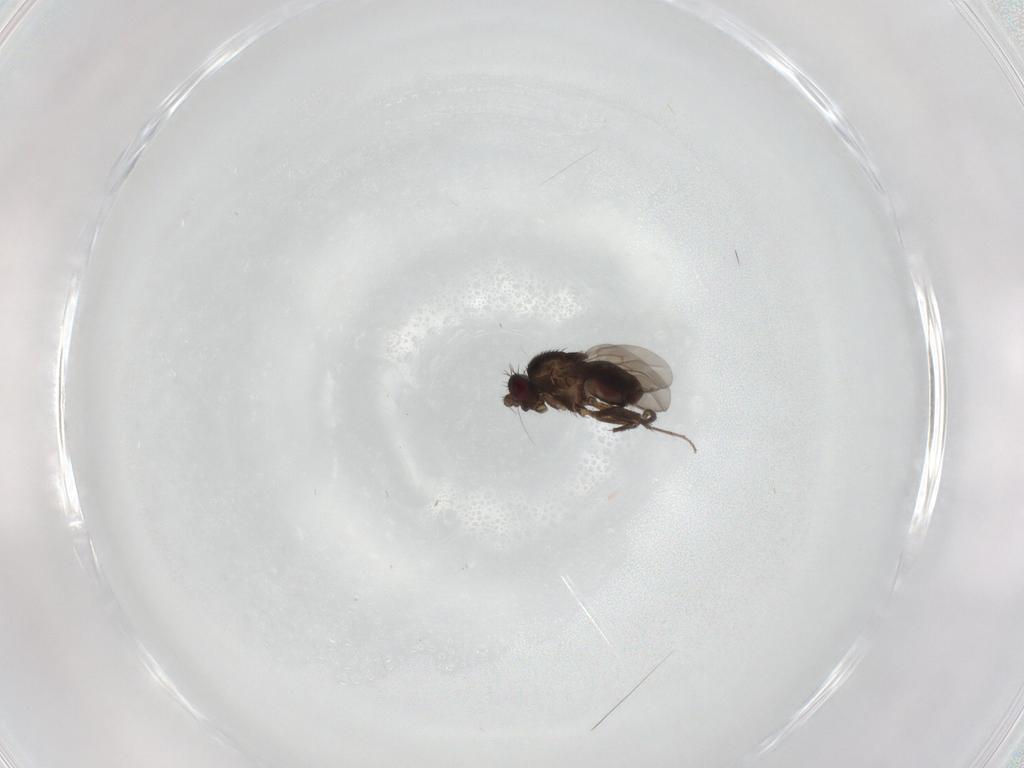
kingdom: Animalia
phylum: Arthropoda
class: Insecta
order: Diptera
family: Sphaeroceridae
